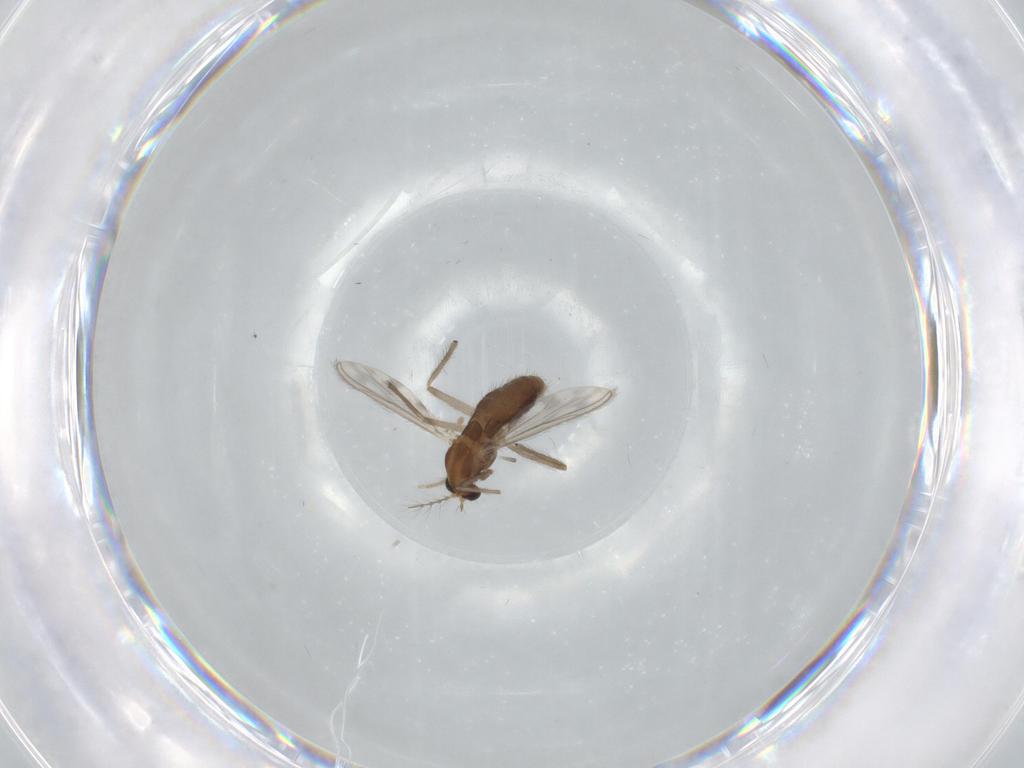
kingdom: Animalia
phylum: Arthropoda
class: Insecta
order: Diptera
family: Chironomidae
